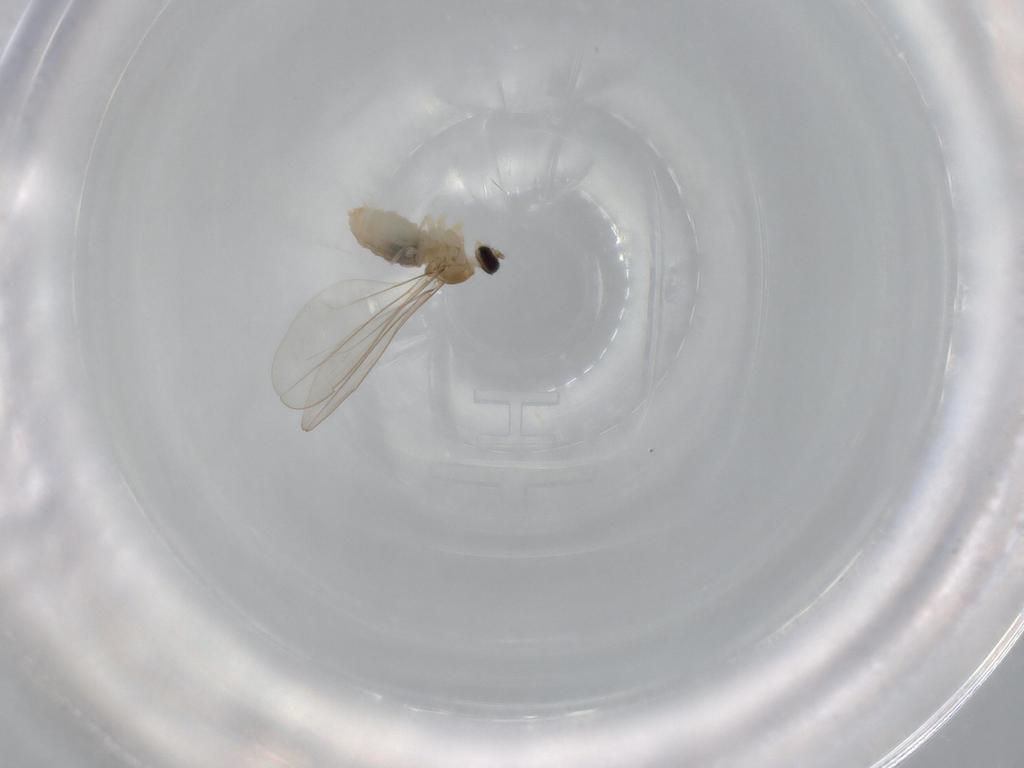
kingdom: Animalia
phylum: Arthropoda
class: Insecta
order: Diptera
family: Cecidomyiidae
